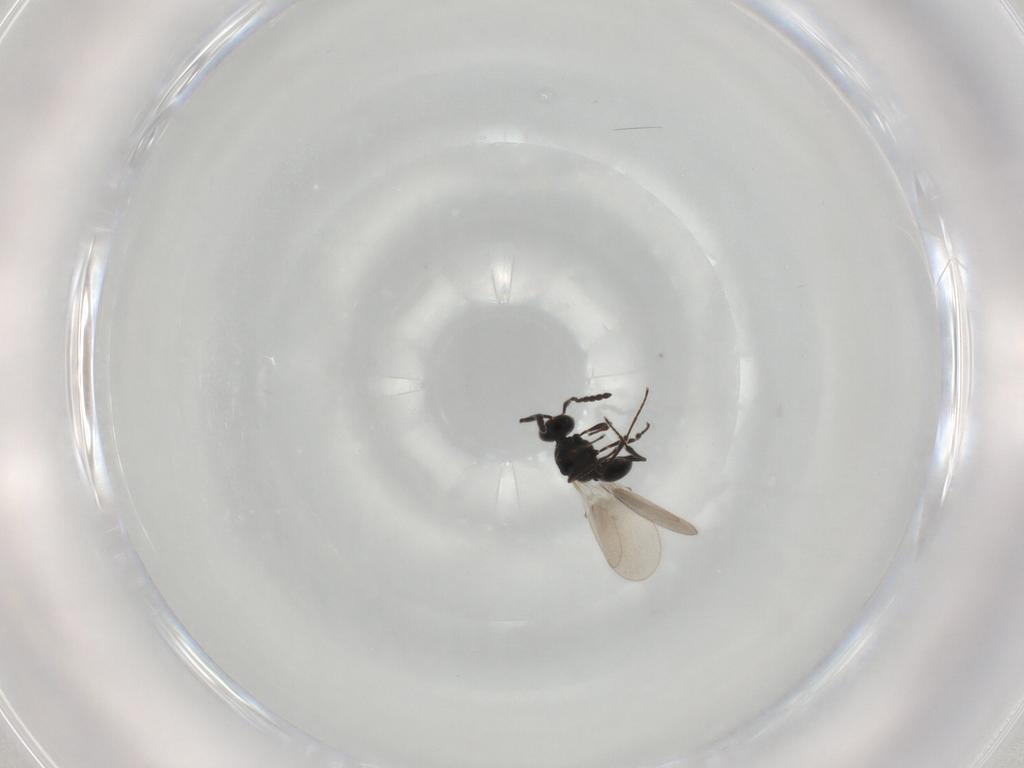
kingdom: Animalia
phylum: Arthropoda
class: Insecta
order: Hymenoptera
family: Platygastridae
